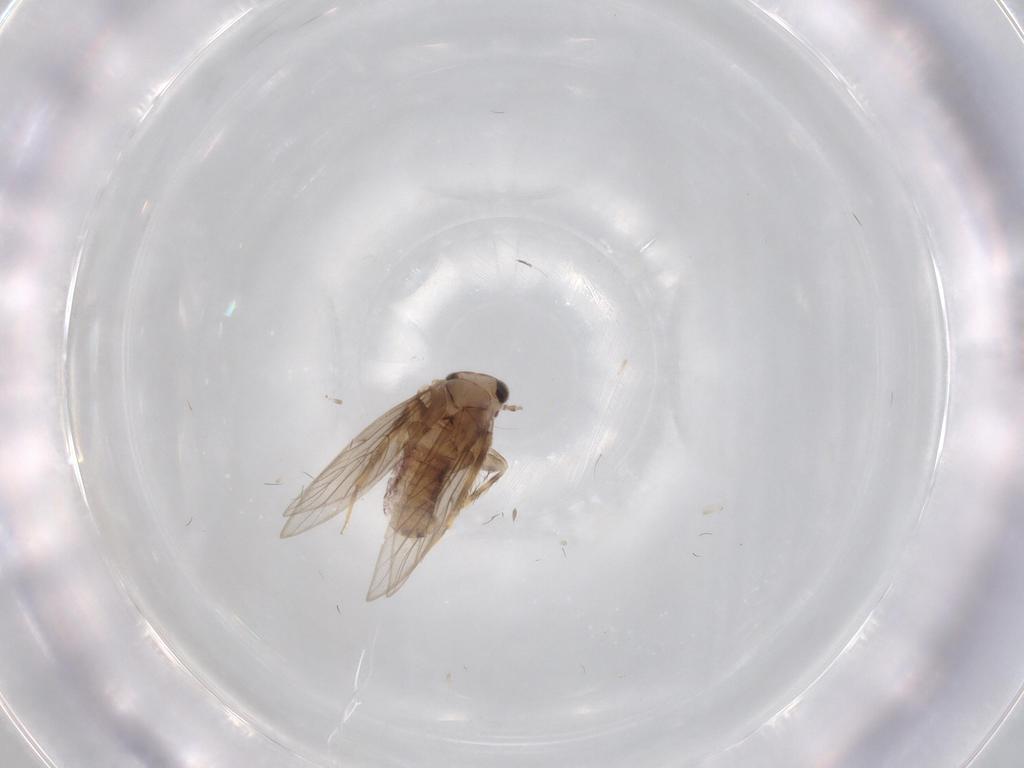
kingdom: Animalia
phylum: Arthropoda
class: Insecta
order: Psocodea
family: Lepidopsocidae
